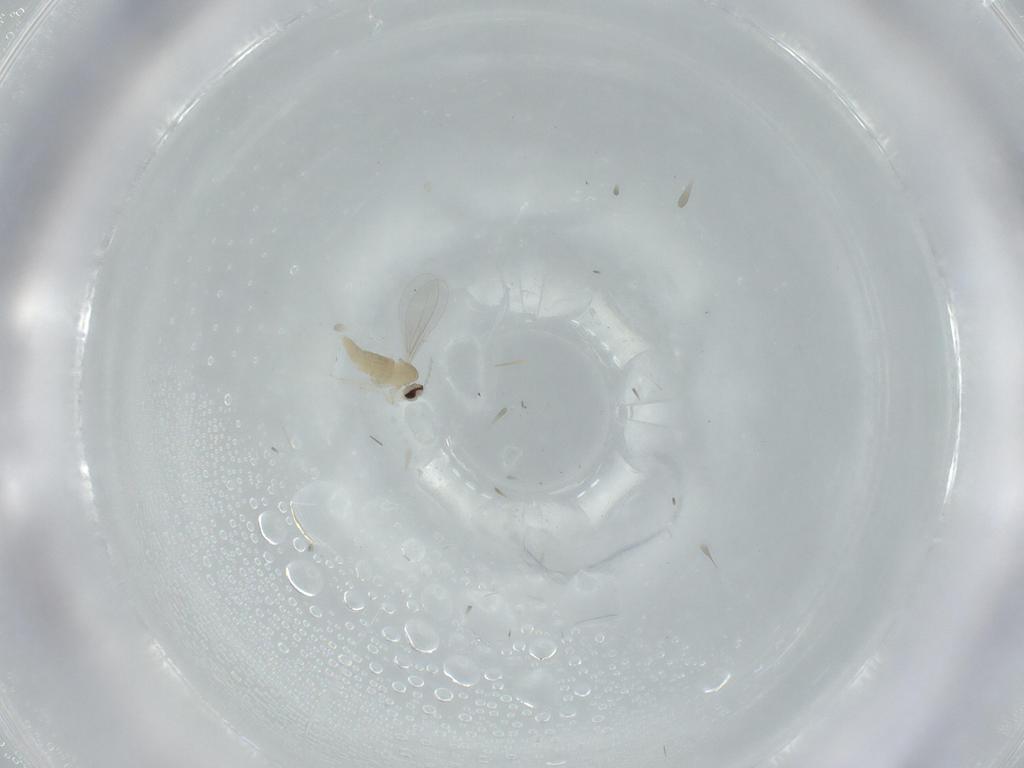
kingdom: Animalia
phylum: Arthropoda
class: Insecta
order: Diptera
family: Cecidomyiidae
